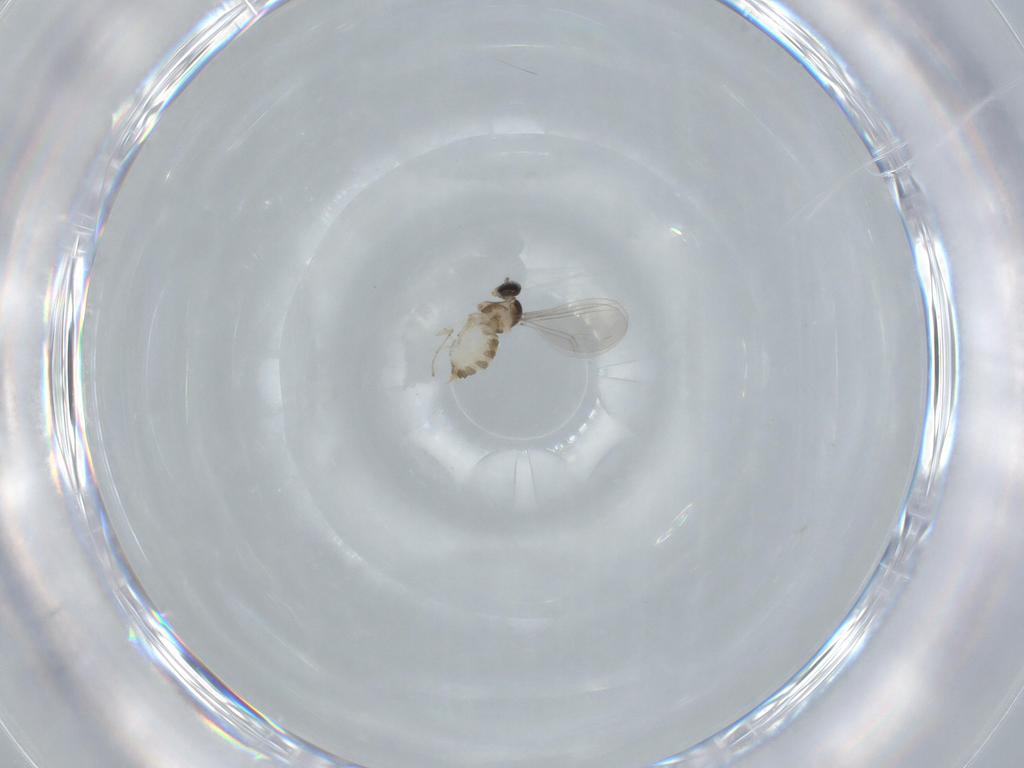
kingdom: Animalia
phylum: Arthropoda
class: Insecta
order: Diptera
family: Cecidomyiidae
